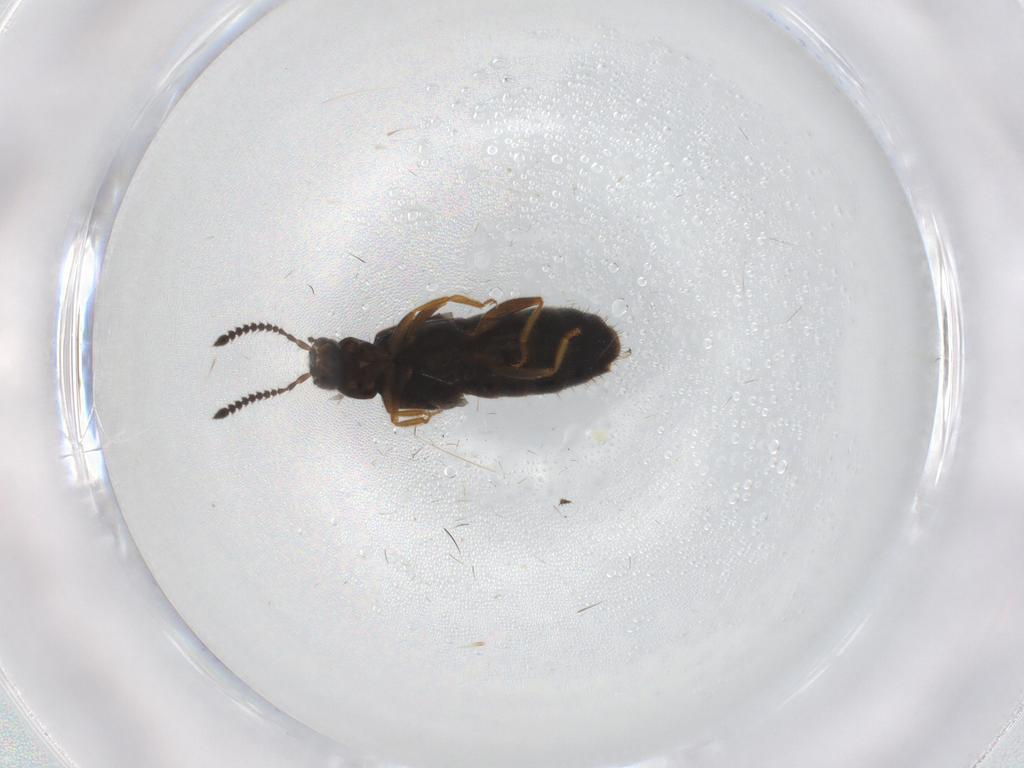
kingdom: Animalia
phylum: Arthropoda
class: Insecta
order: Coleoptera
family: Staphylinidae
